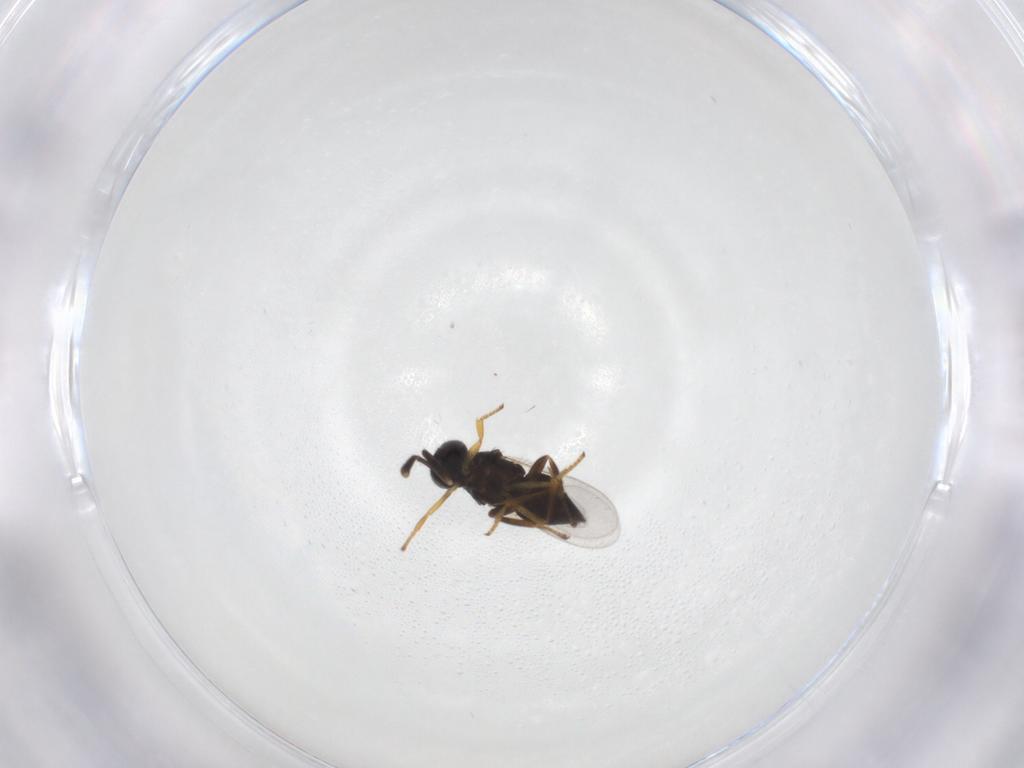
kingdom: Animalia
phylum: Arthropoda
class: Insecta
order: Hymenoptera
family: Encyrtidae
